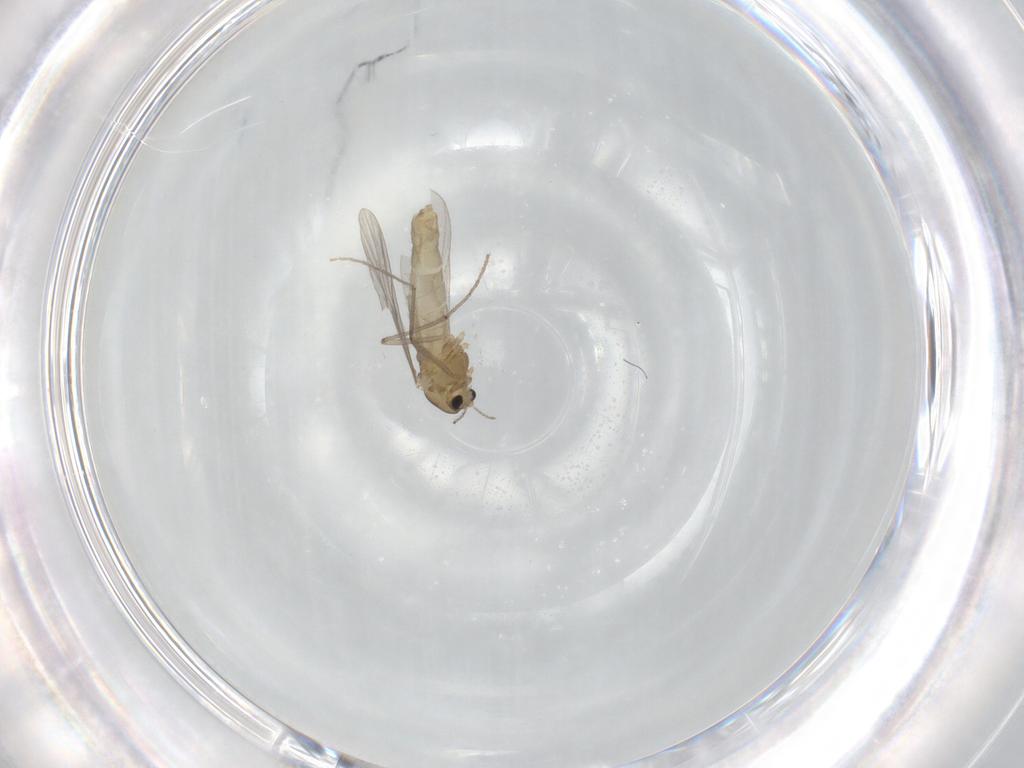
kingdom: Animalia
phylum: Arthropoda
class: Insecta
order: Diptera
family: Chironomidae
